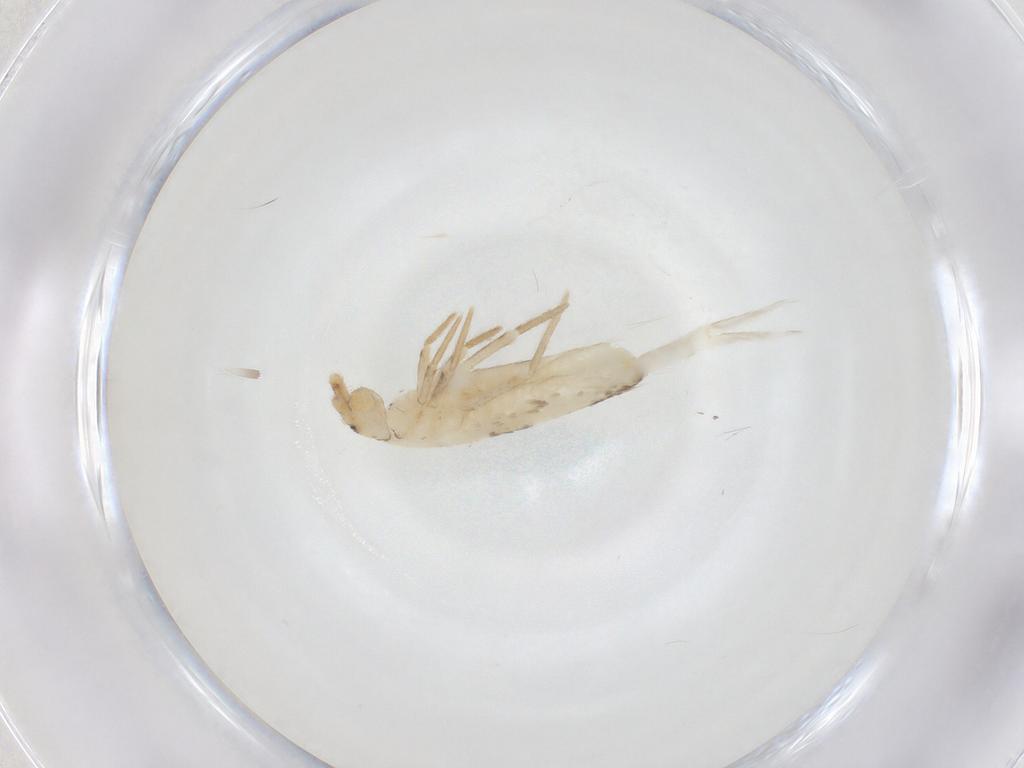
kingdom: Animalia
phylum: Arthropoda
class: Collembola
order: Entomobryomorpha
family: Entomobryidae
